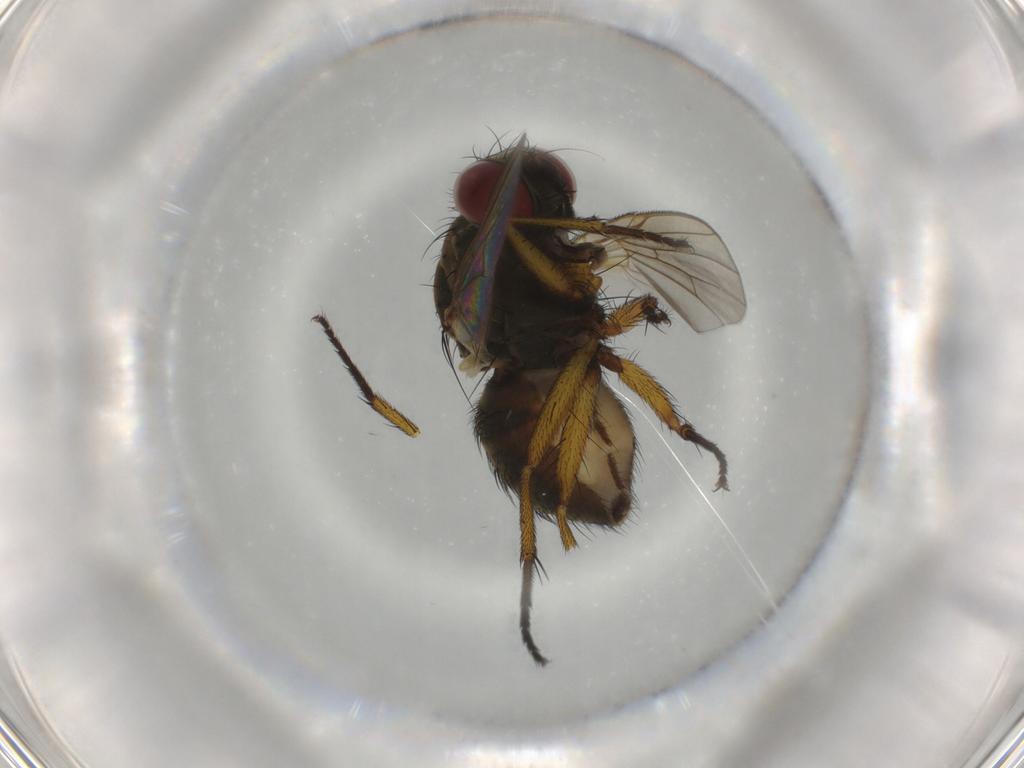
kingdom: Animalia
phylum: Arthropoda
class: Insecta
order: Diptera
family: Muscidae
